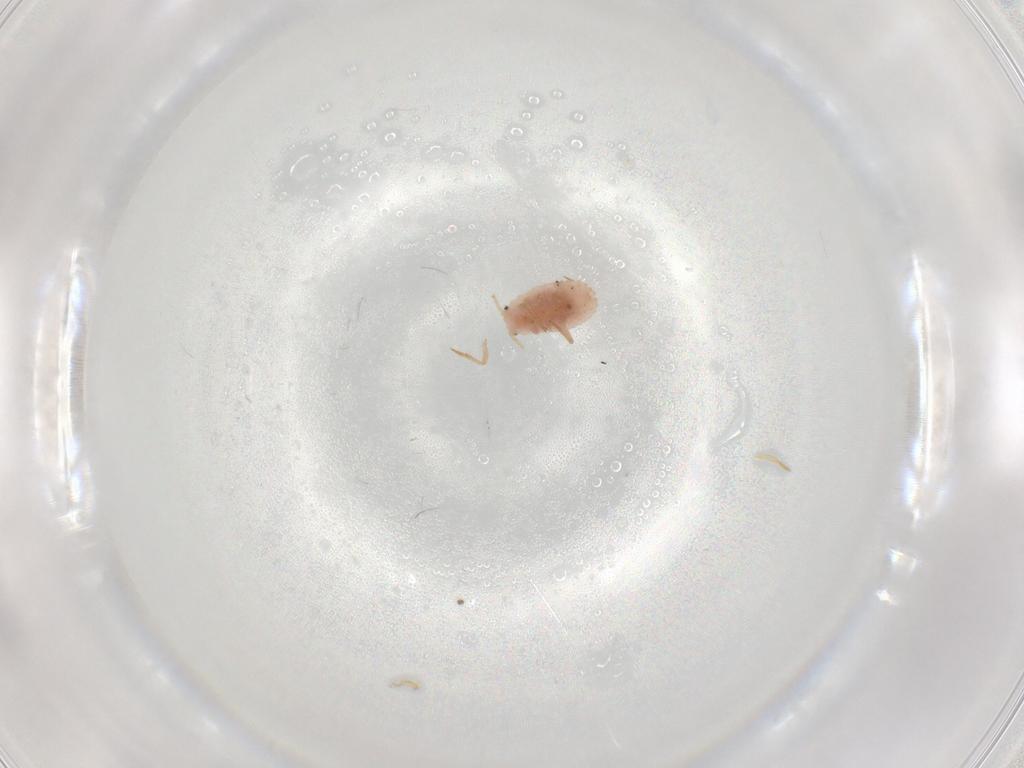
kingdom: Animalia
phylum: Arthropoda
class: Insecta
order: Hemiptera
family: Coccoidea_incertae_sedis
